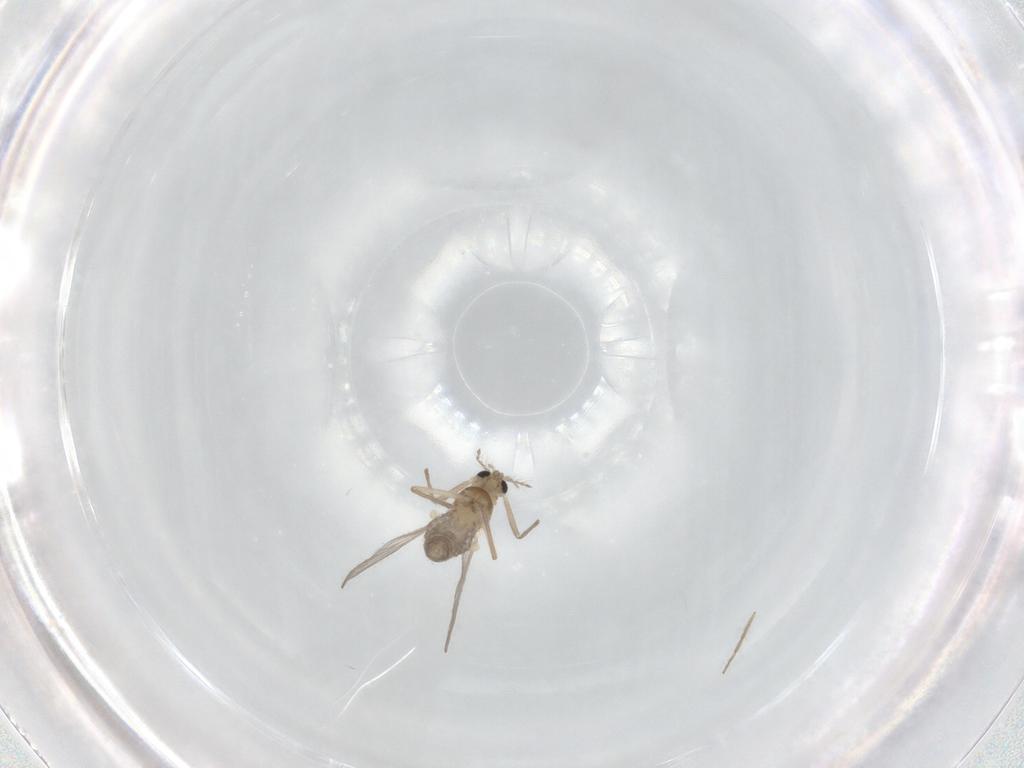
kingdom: Animalia
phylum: Arthropoda
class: Insecta
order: Diptera
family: Chironomidae
